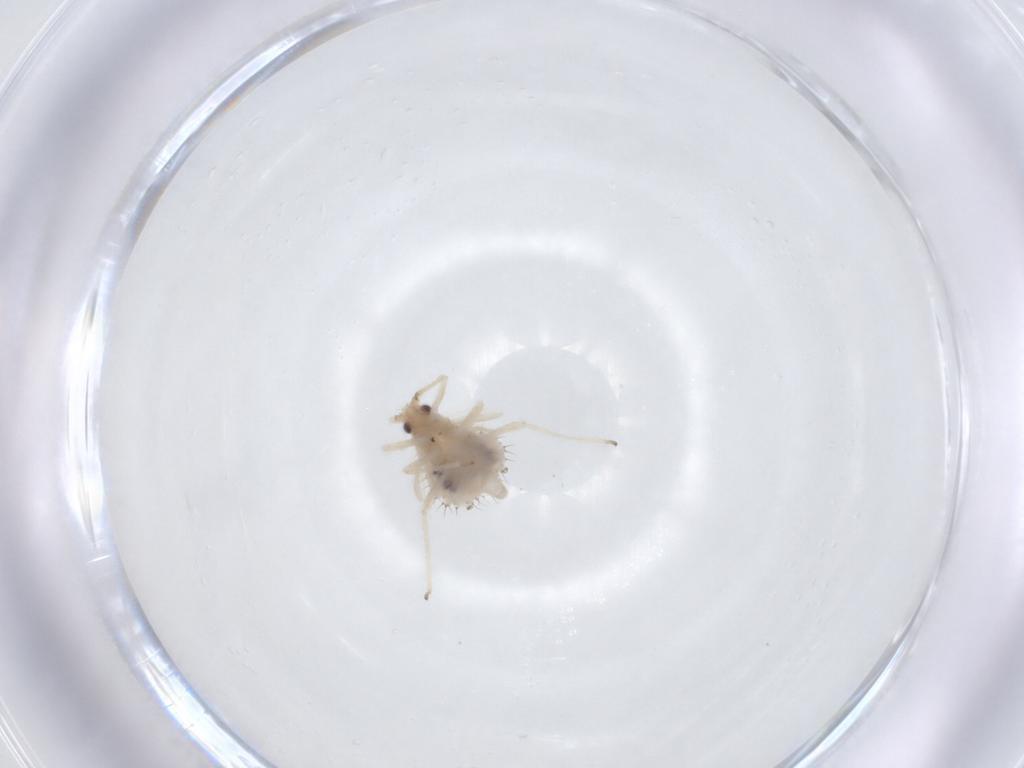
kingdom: Animalia
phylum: Arthropoda
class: Insecta
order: Hemiptera
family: Aphididae
